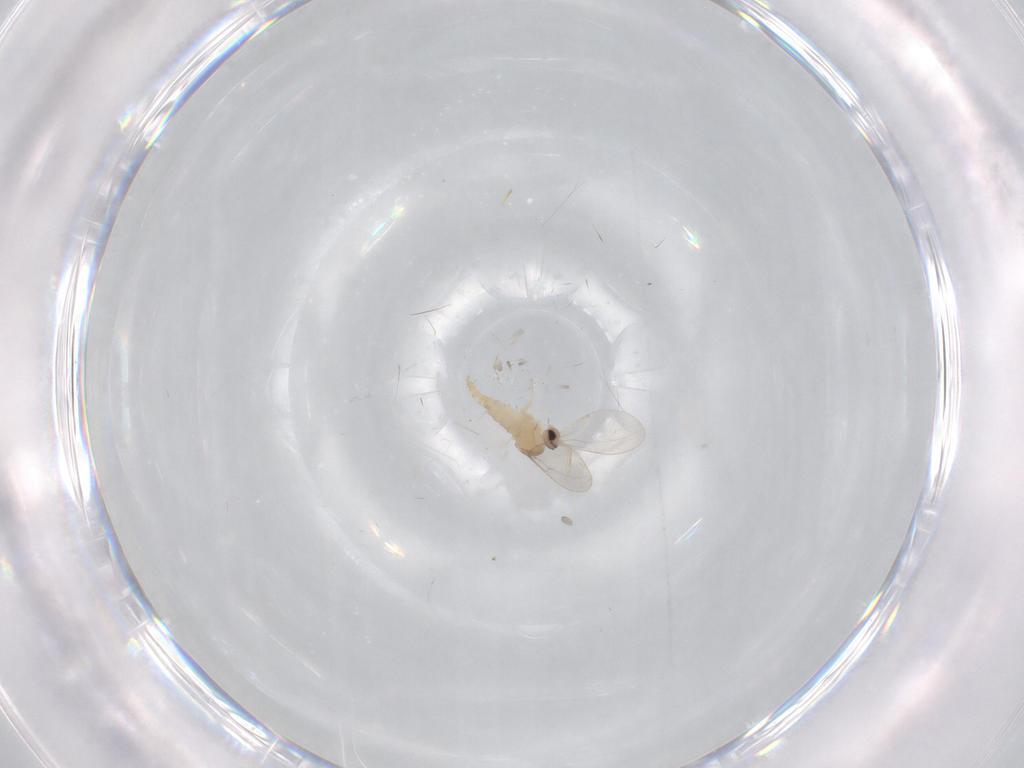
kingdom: Animalia
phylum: Arthropoda
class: Insecta
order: Diptera
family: Cecidomyiidae
